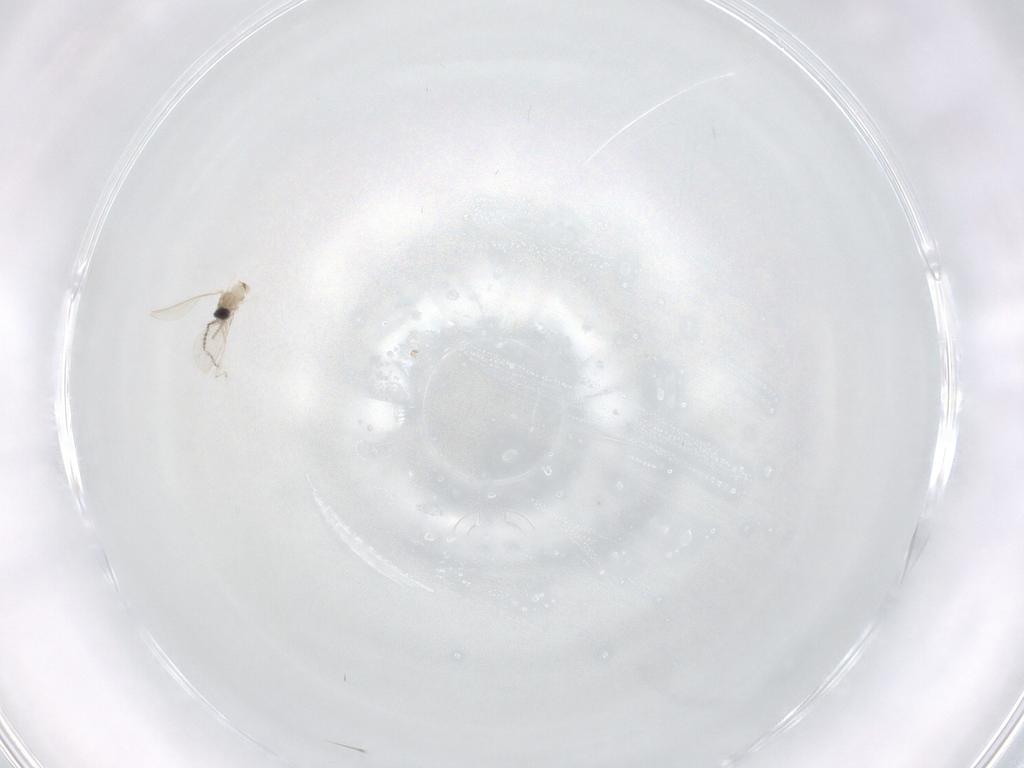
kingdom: Animalia
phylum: Arthropoda
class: Insecta
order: Diptera
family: Cecidomyiidae
